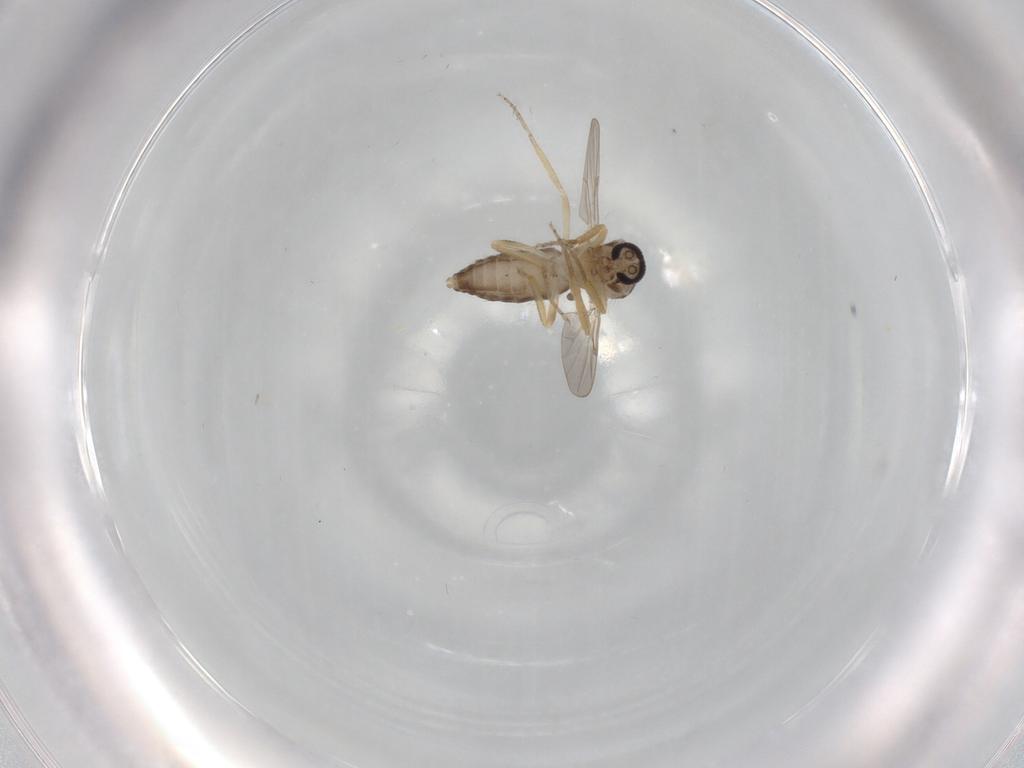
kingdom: Animalia
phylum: Arthropoda
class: Insecta
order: Diptera
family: Ceratopogonidae
